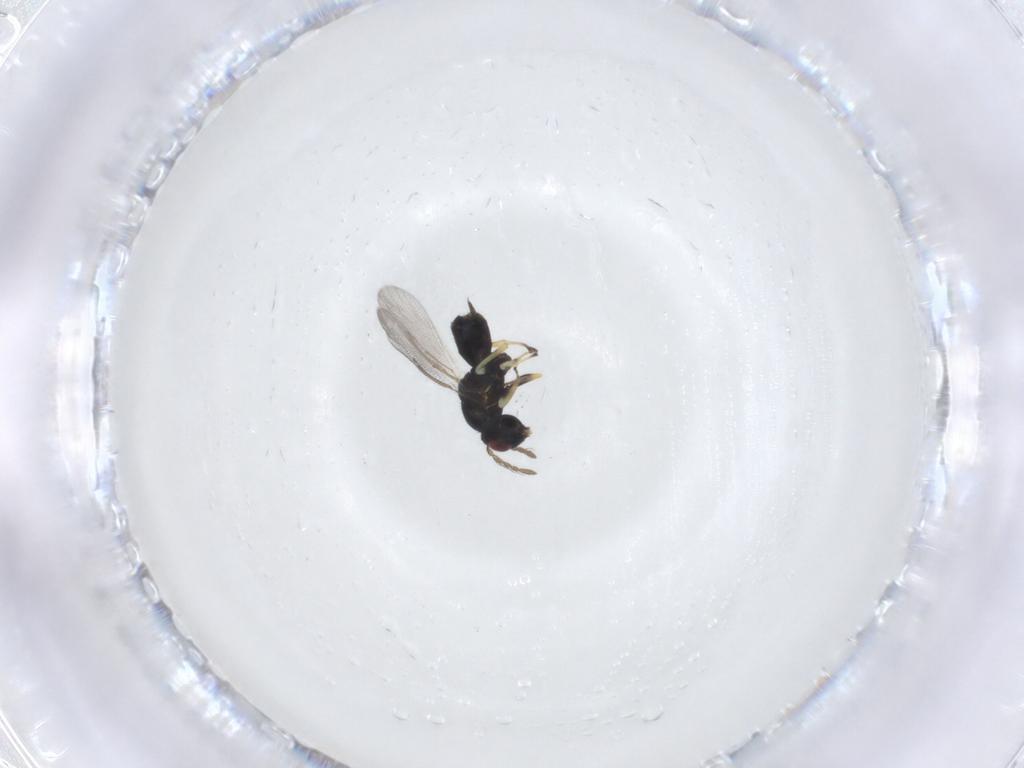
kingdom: Animalia
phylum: Arthropoda
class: Insecta
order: Hymenoptera
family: Eulophidae
